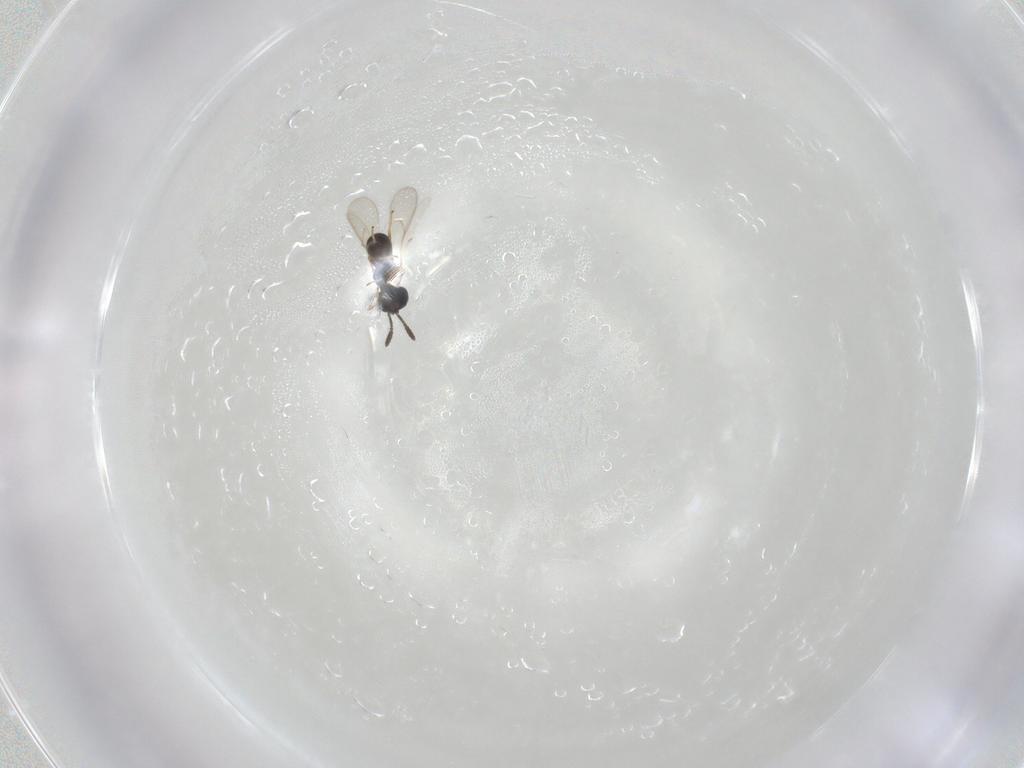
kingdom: Animalia
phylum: Arthropoda
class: Insecta
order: Hymenoptera
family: Scelionidae
